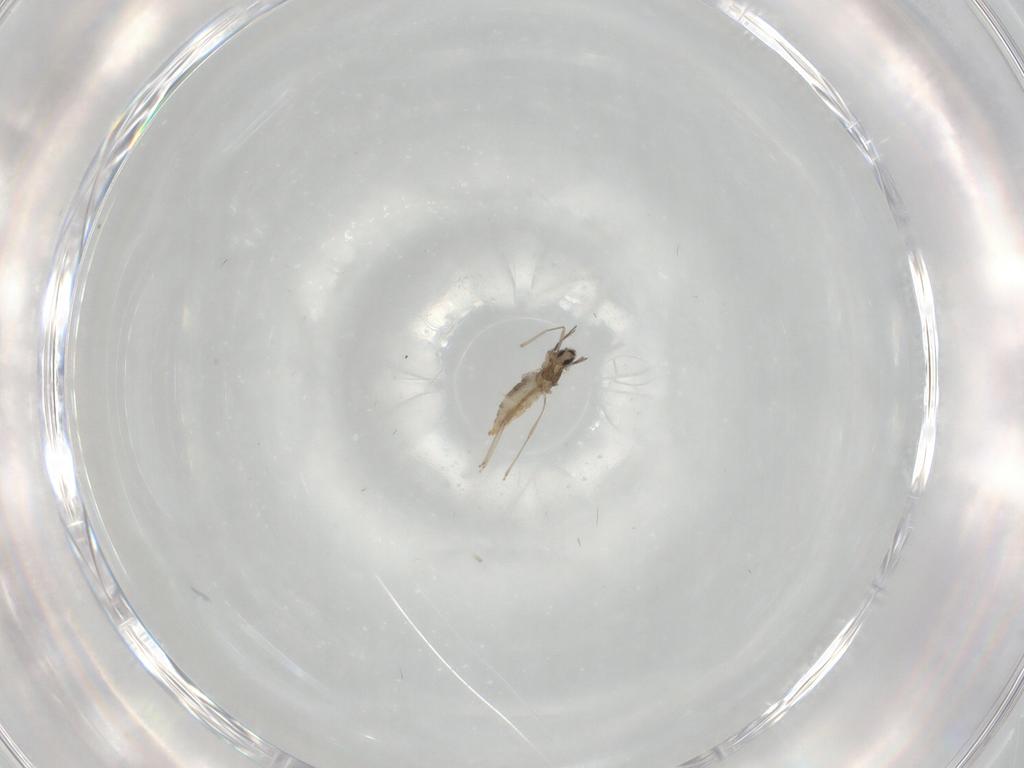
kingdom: Animalia
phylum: Arthropoda
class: Insecta
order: Diptera
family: Cecidomyiidae
